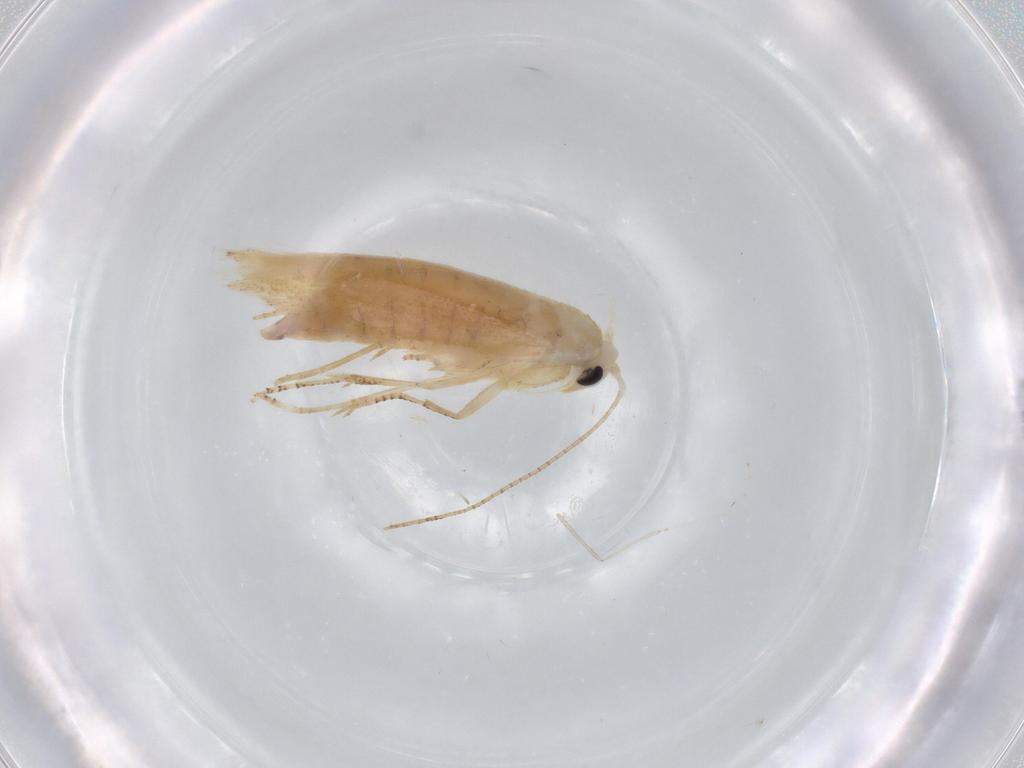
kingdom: Animalia
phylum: Arthropoda
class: Insecta
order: Lepidoptera
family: Bucculatricidae
